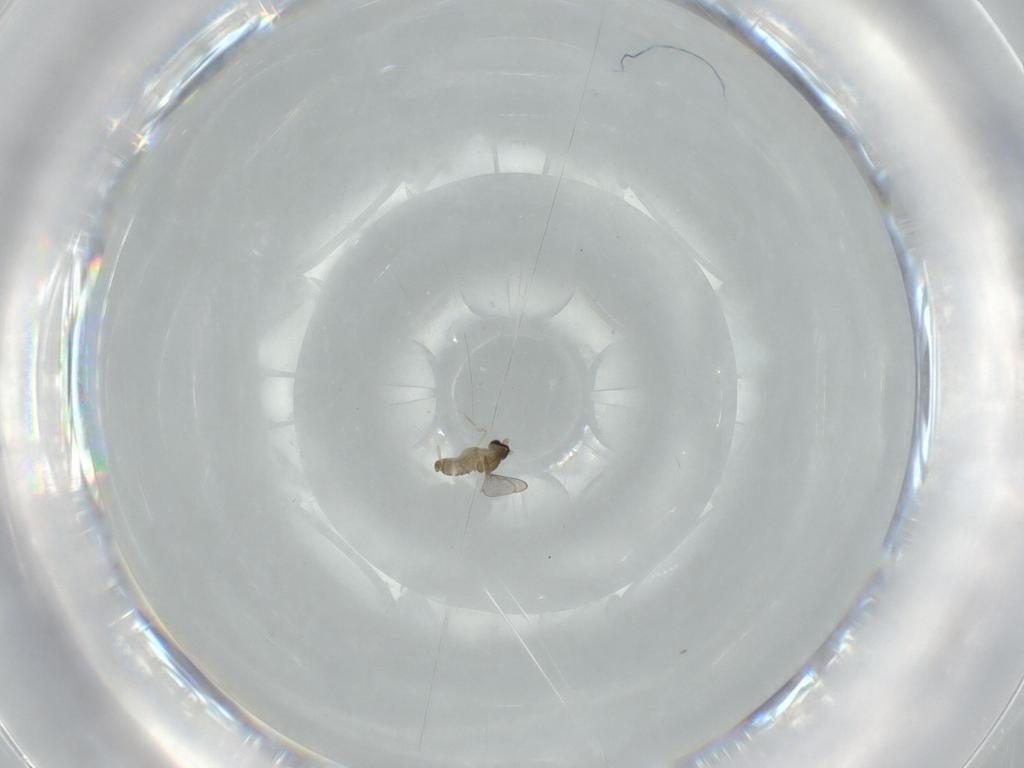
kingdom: Animalia
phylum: Arthropoda
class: Insecta
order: Diptera
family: Cecidomyiidae
